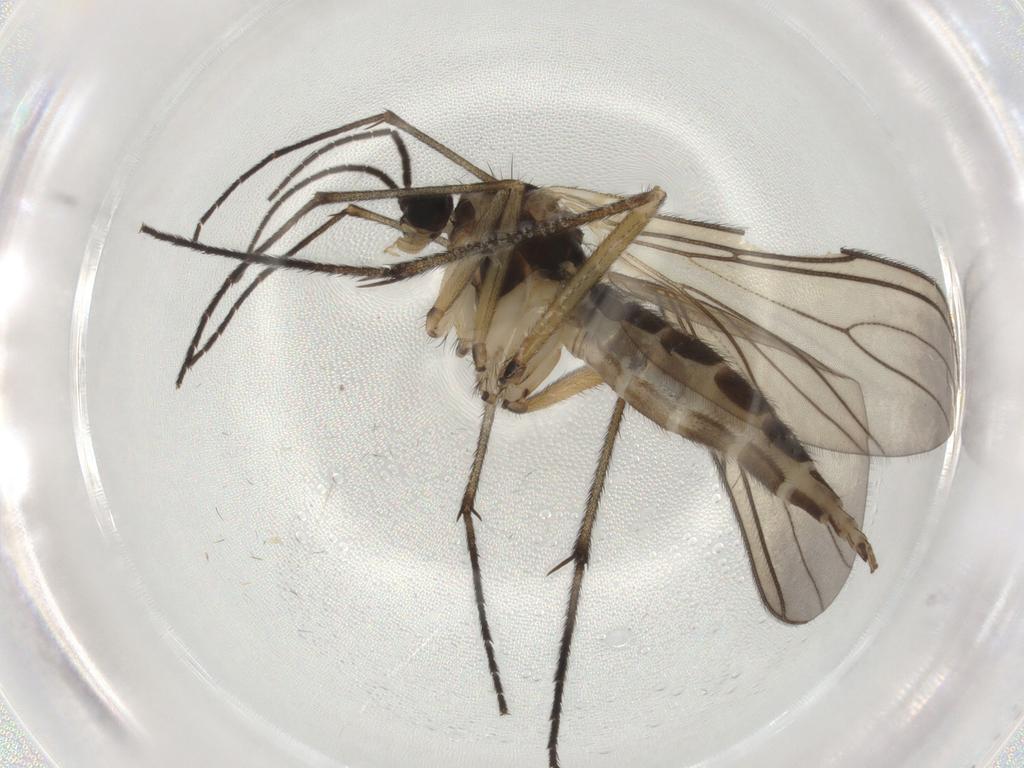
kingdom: Animalia
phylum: Arthropoda
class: Insecta
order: Diptera
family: Sciaridae
